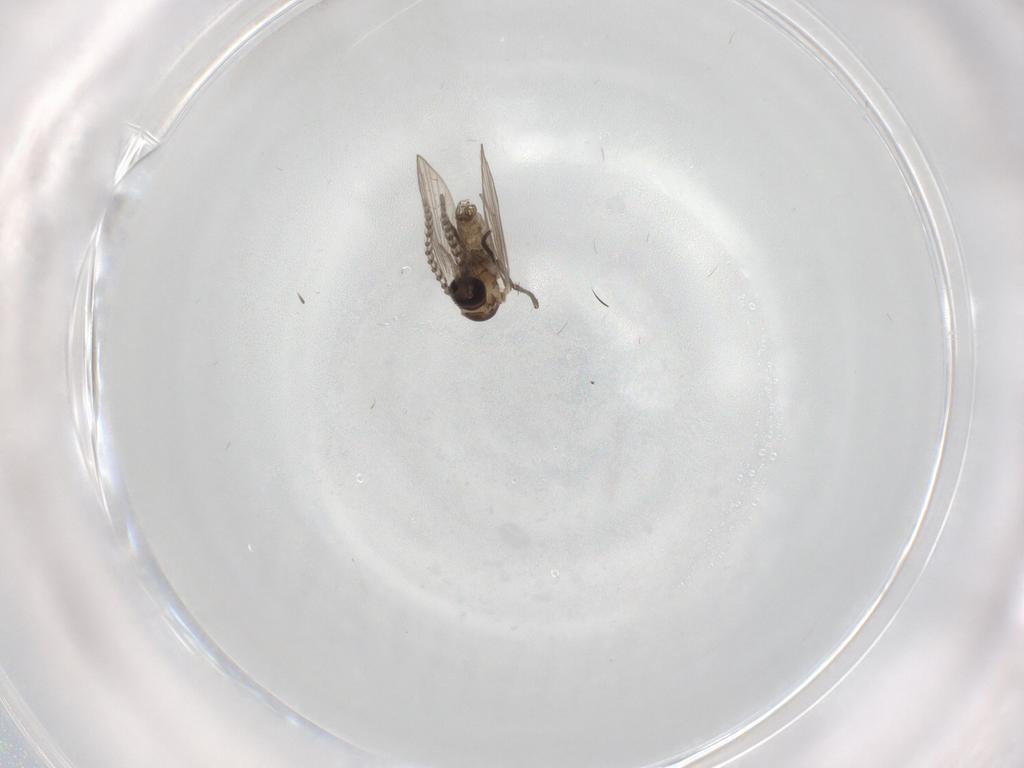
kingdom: Animalia
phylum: Arthropoda
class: Insecta
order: Diptera
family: Psychodidae
